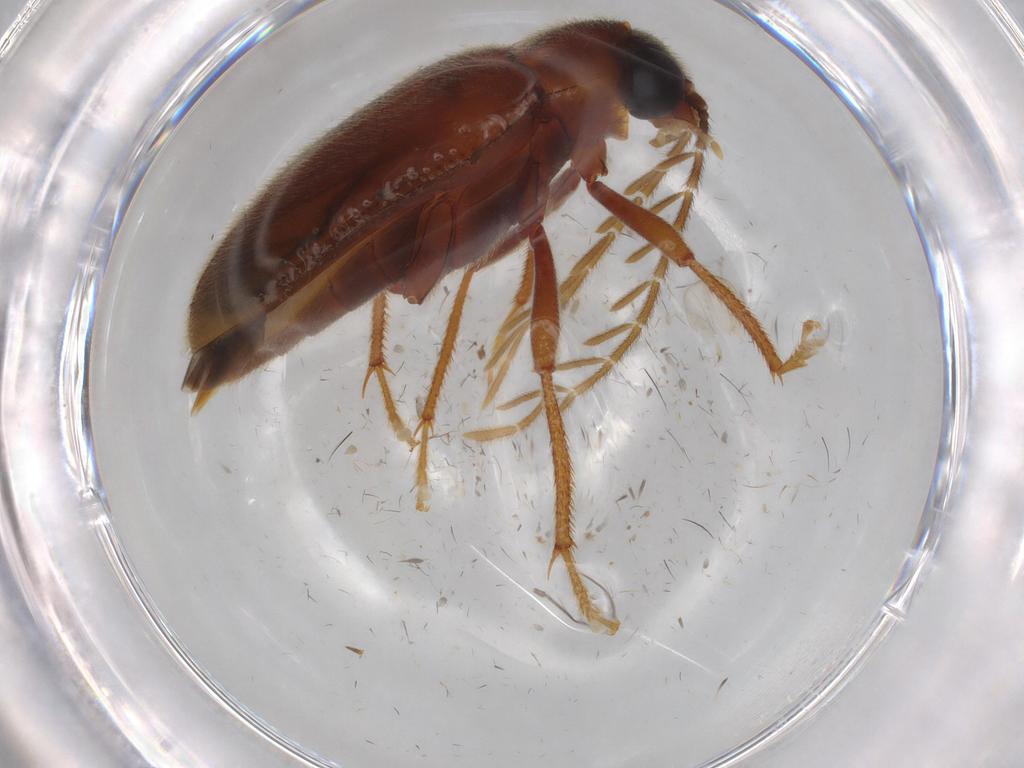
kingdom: Animalia
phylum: Arthropoda
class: Insecta
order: Coleoptera
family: Ptilodactylidae
